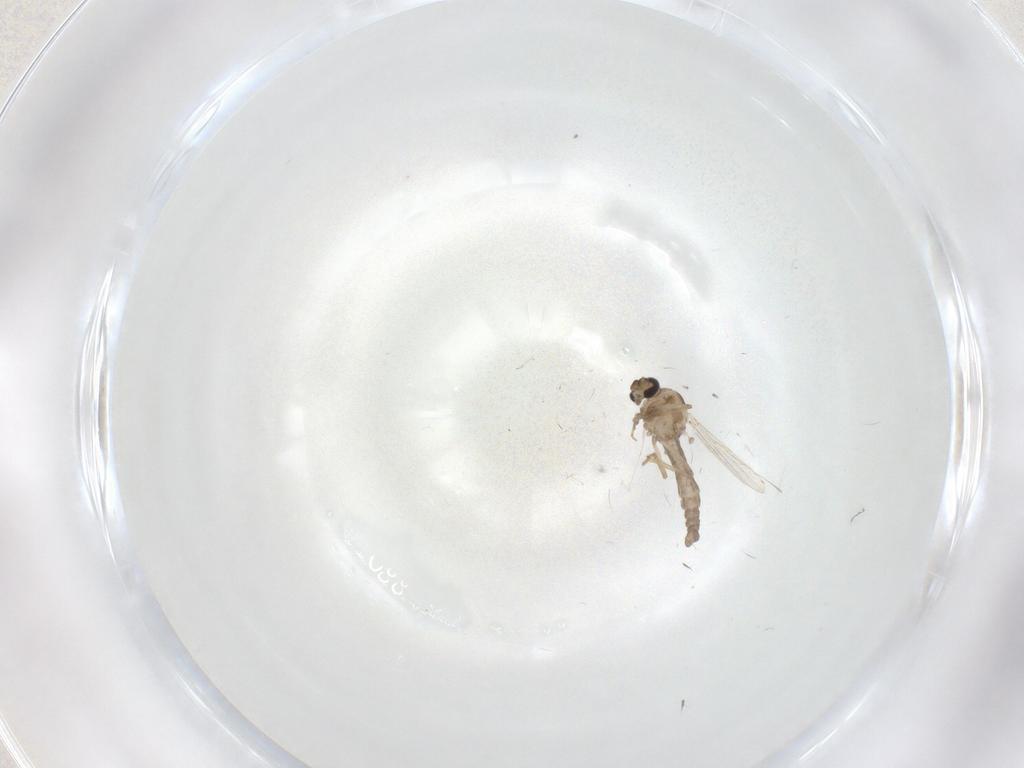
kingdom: Animalia
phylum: Arthropoda
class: Insecta
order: Diptera
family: Ceratopogonidae
